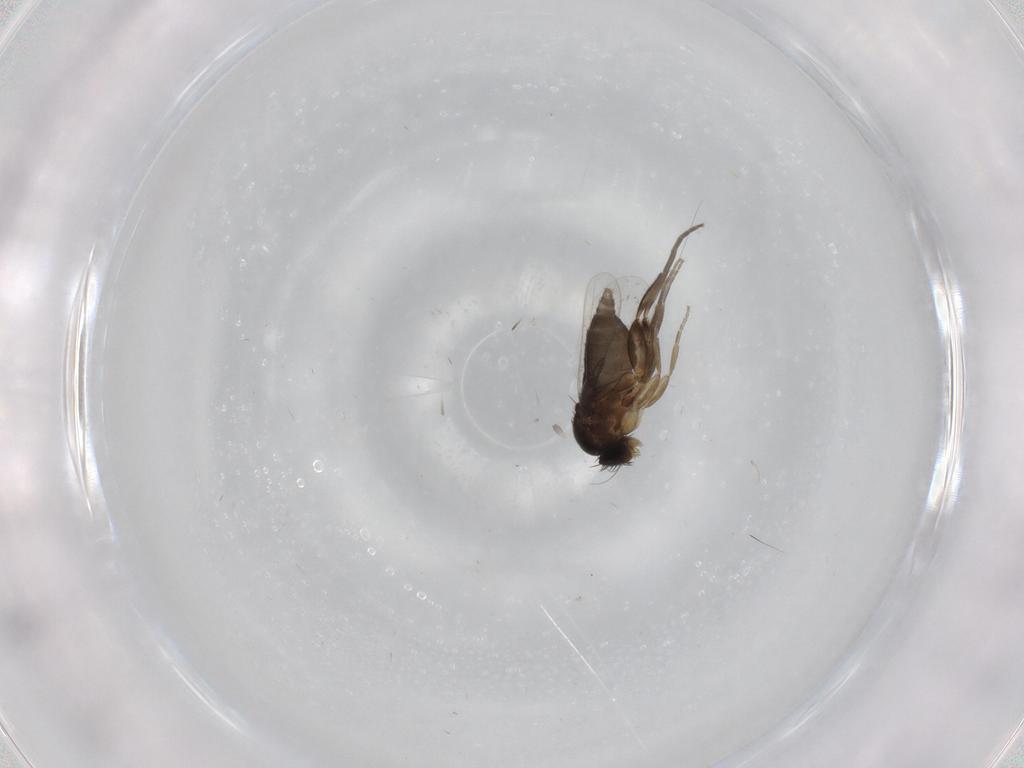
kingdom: Animalia
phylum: Arthropoda
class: Insecta
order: Diptera
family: Phoridae
